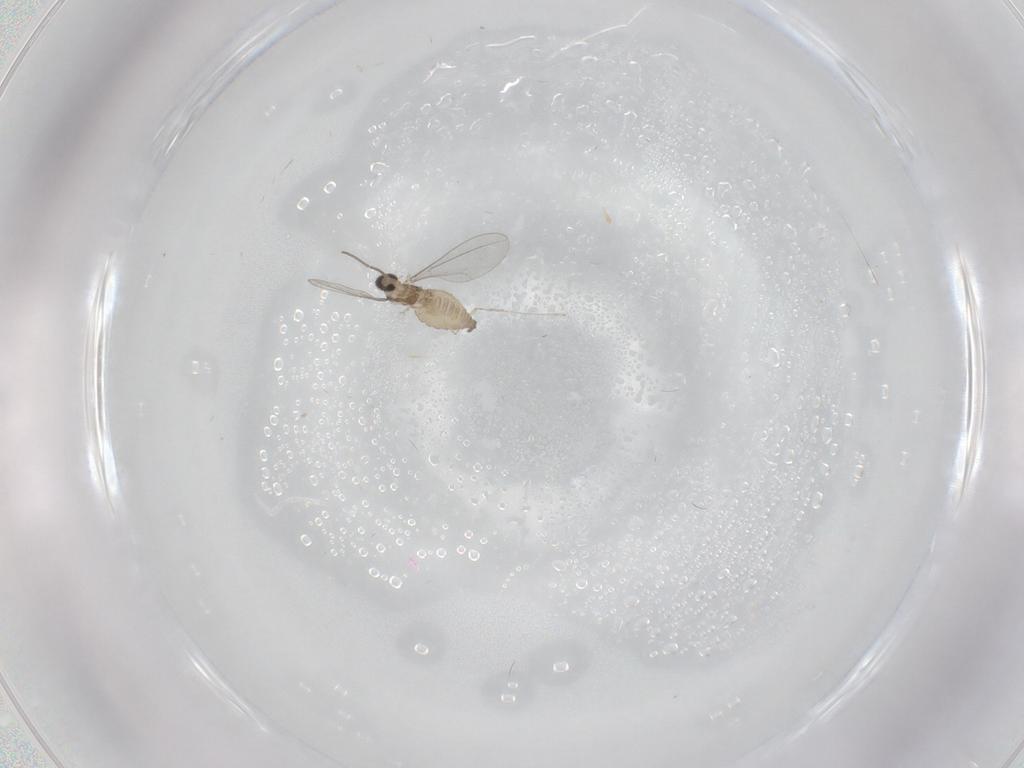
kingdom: Animalia
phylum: Arthropoda
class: Insecta
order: Diptera
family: Cecidomyiidae
